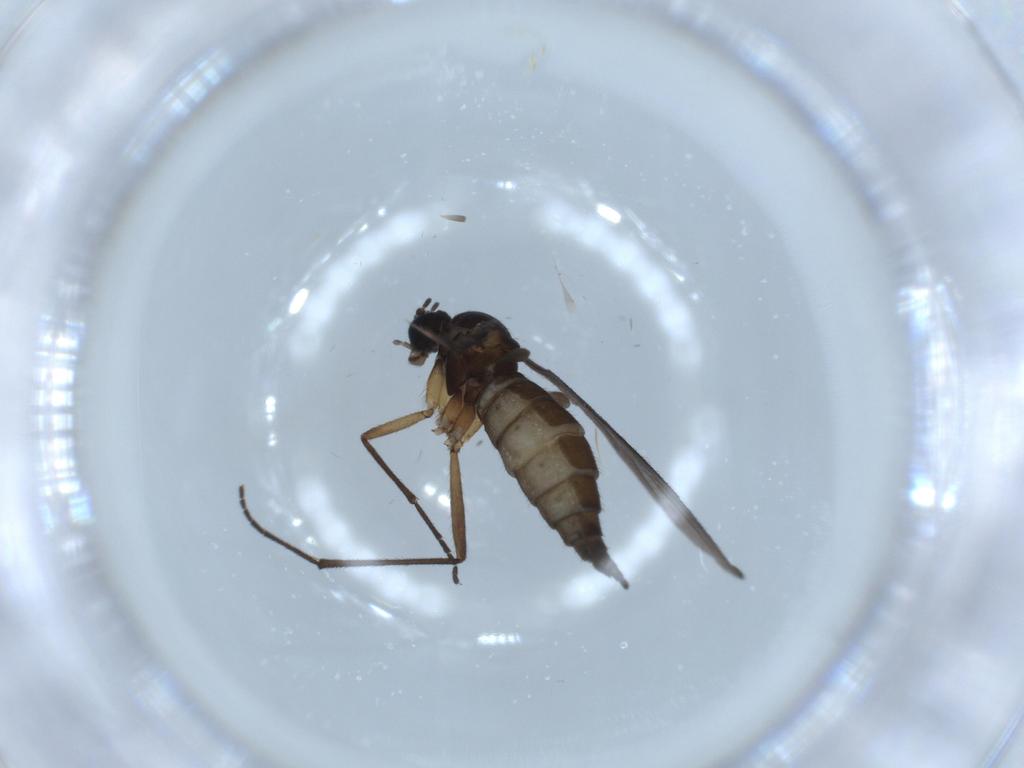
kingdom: Animalia
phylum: Arthropoda
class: Insecta
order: Diptera
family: Sciaridae
